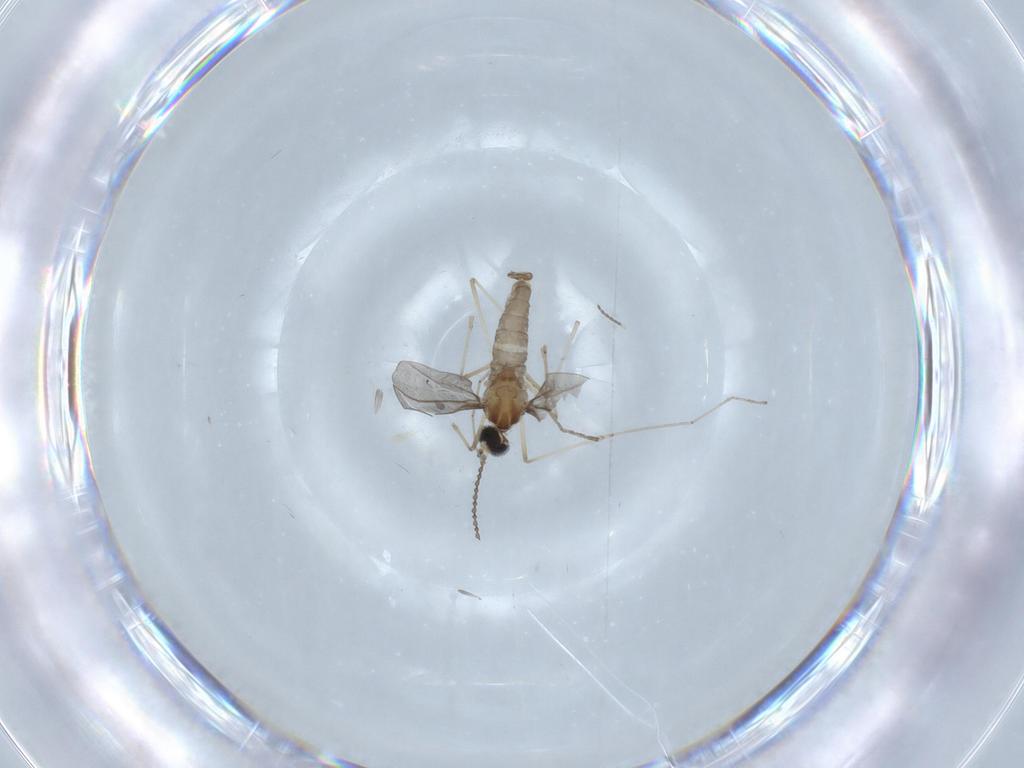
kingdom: Animalia
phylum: Arthropoda
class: Insecta
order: Diptera
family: Cecidomyiidae
